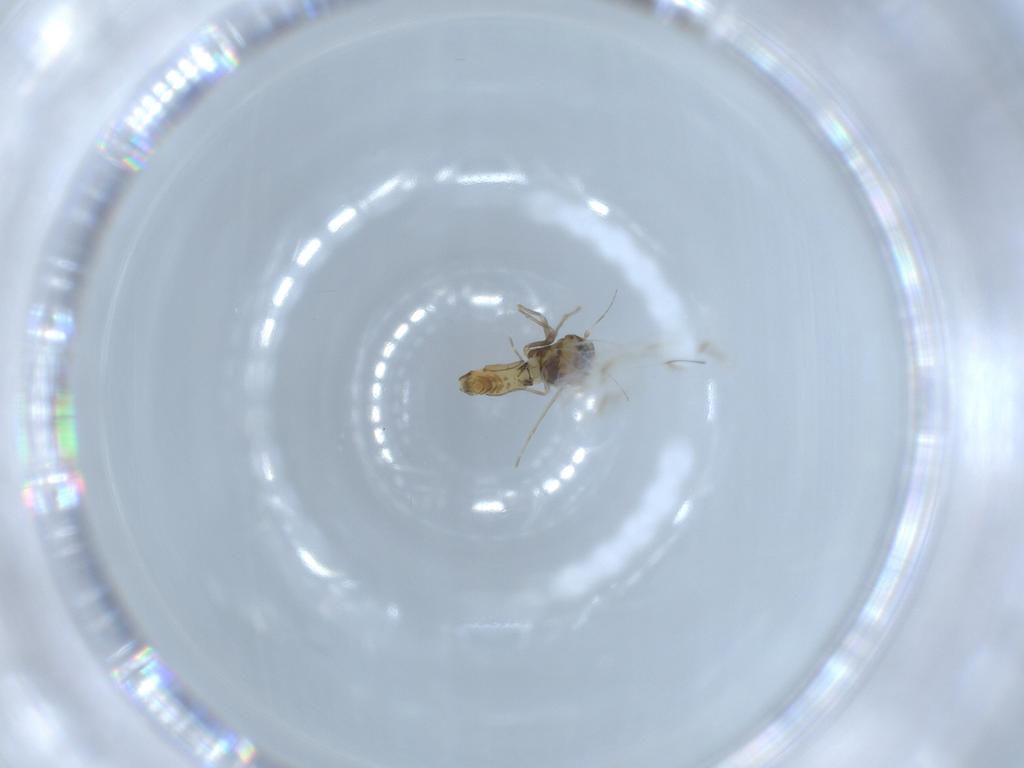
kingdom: Animalia
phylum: Arthropoda
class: Insecta
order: Hemiptera
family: Aleyrodidae
